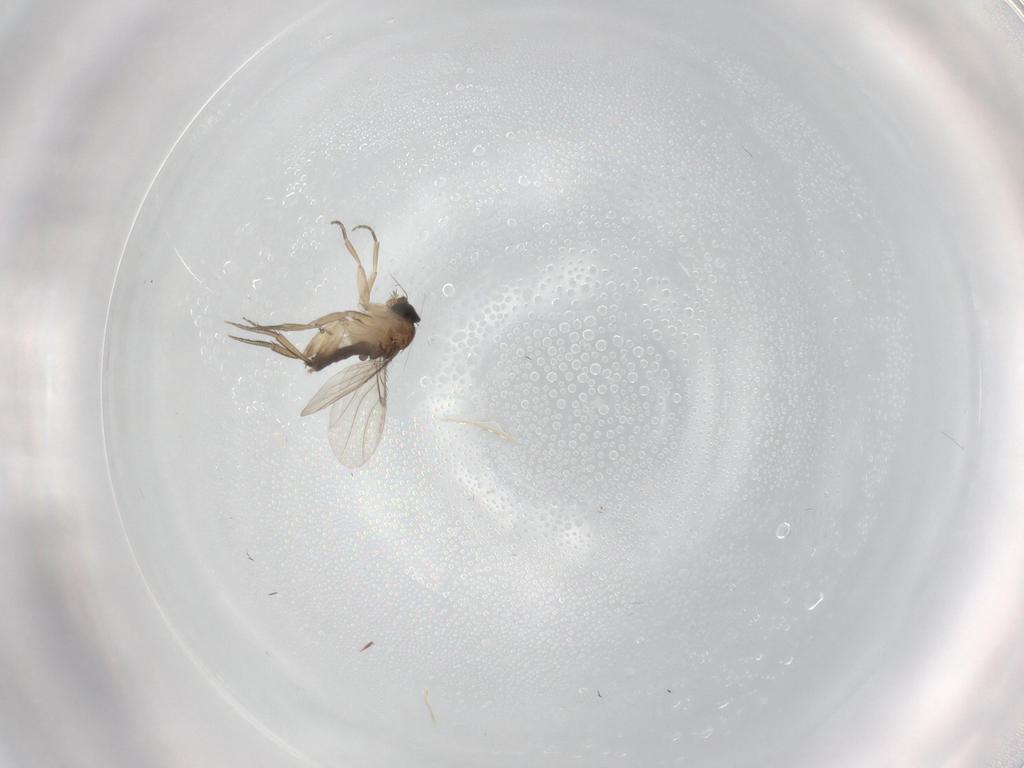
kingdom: Animalia
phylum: Arthropoda
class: Insecta
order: Diptera
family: Phoridae
